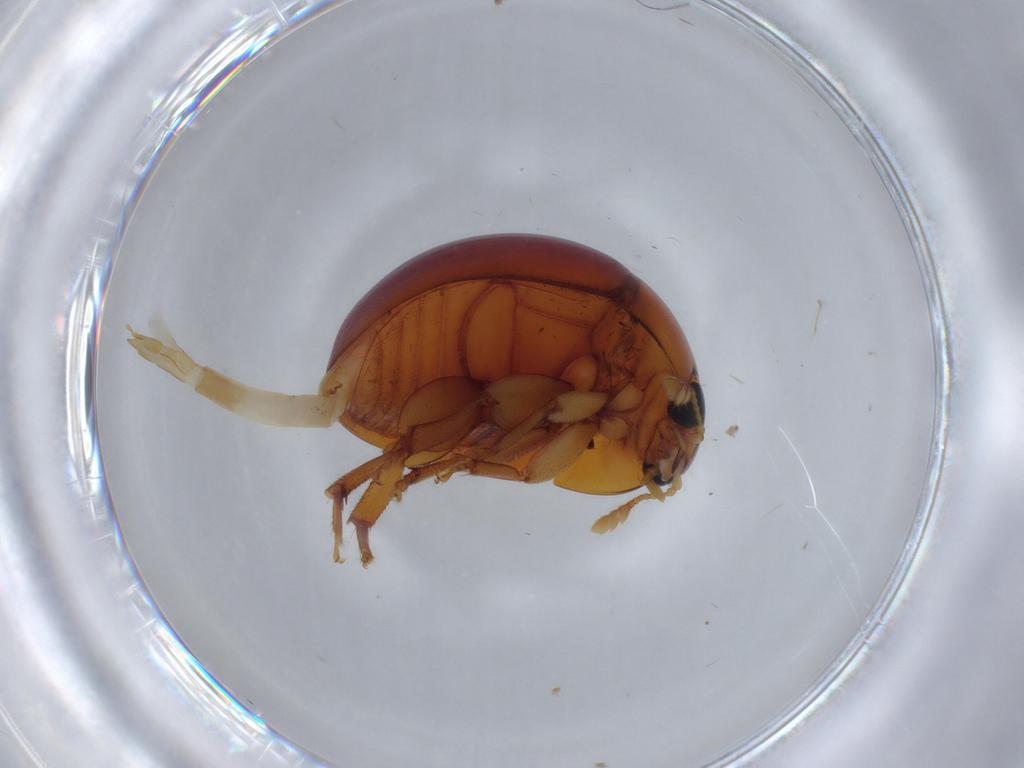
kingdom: Animalia
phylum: Arthropoda
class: Insecta
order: Coleoptera
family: Phalacridae
